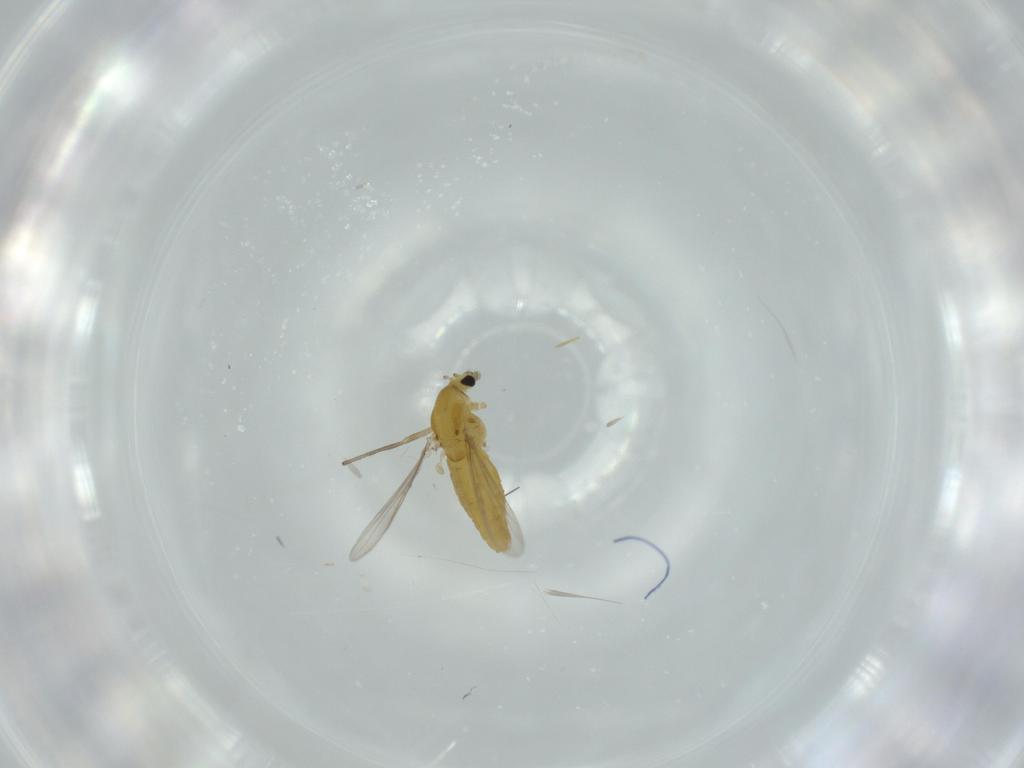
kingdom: Animalia
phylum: Arthropoda
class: Insecta
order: Diptera
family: Chironomidae
